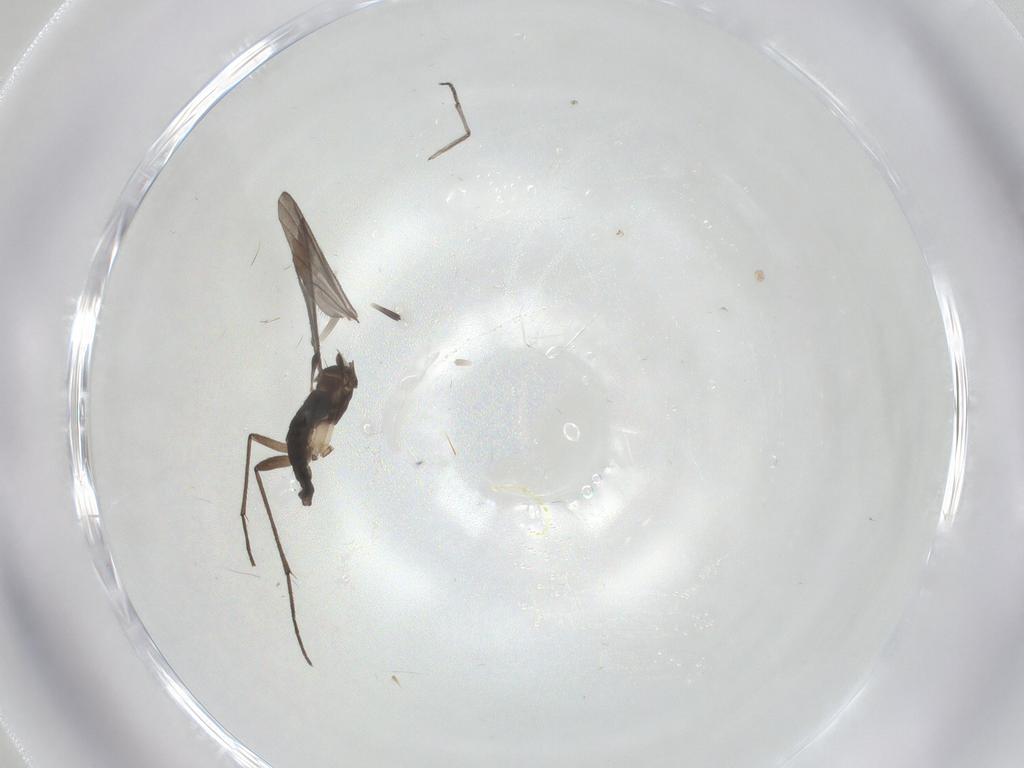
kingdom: Animalia
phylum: Arthropoda
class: Insecta
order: Diptera
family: Sciaridae
